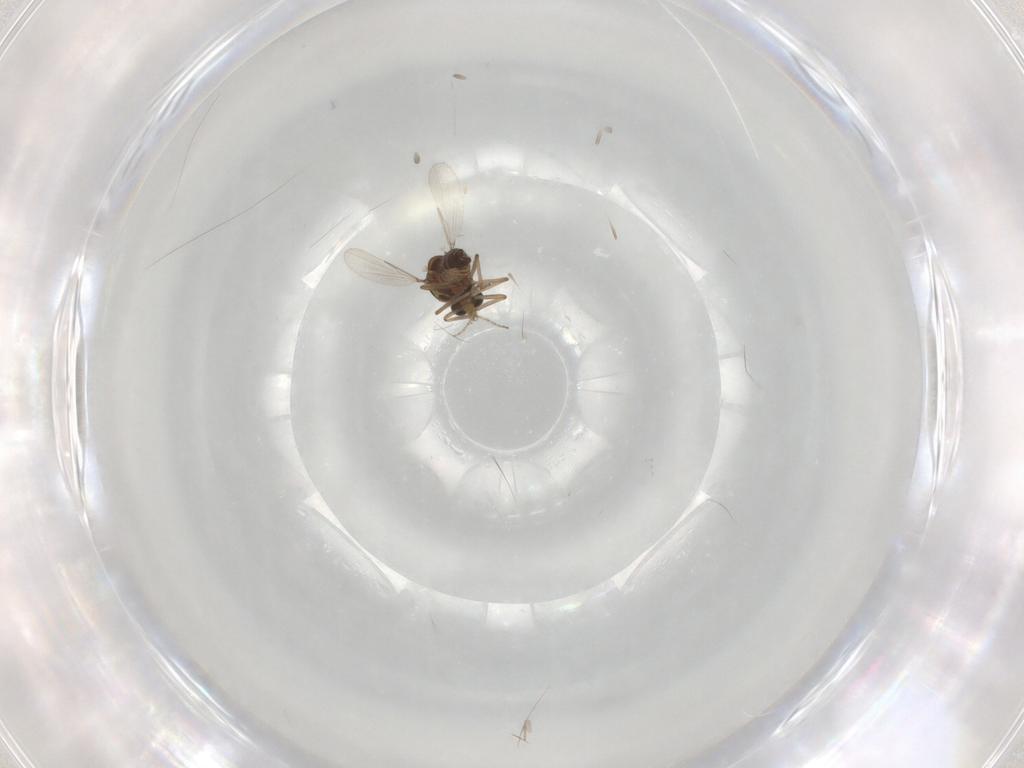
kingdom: Animalia
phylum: Arthropoda
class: Insecta
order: Diptera
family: Ceratopogonidae
